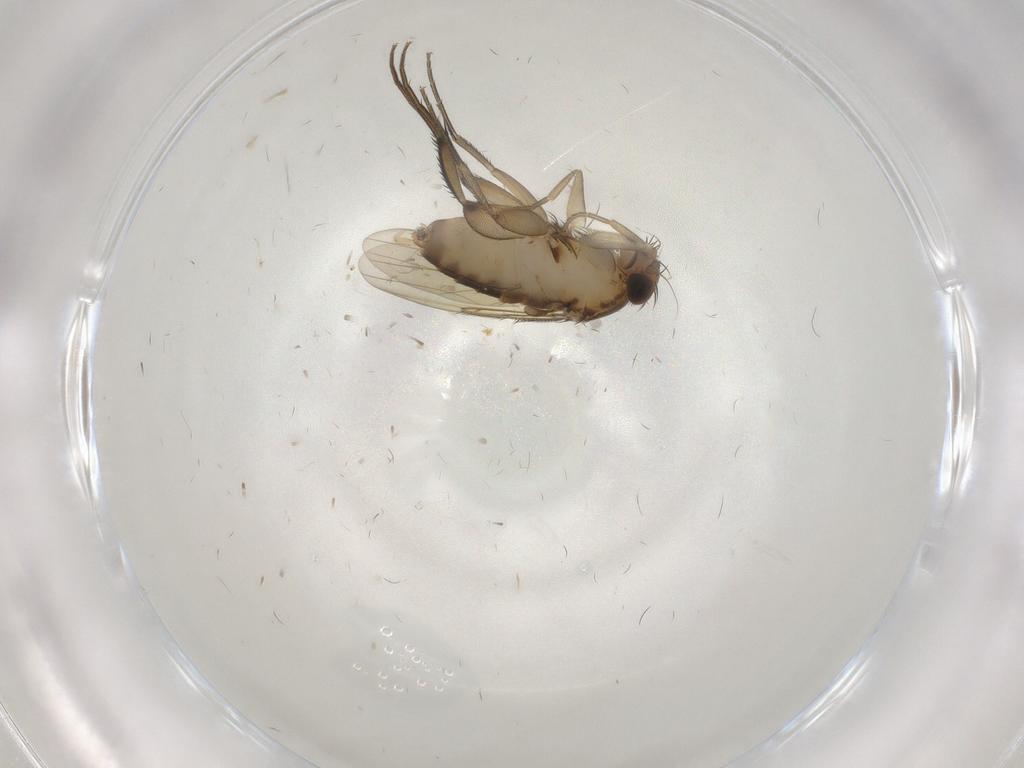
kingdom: Animalia
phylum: Arthropoda
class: Insecta
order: Diptera
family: Phoridae
